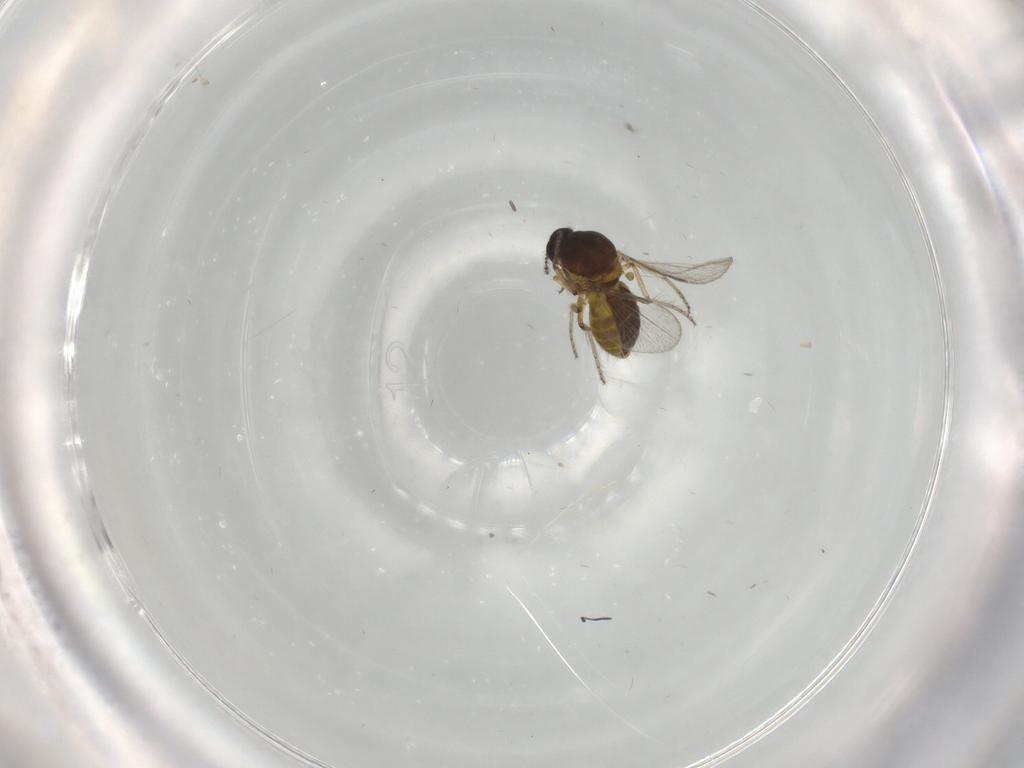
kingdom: Animalia
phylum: Arthropoda
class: Insecta
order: Diptera
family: Ceratopogonidae
